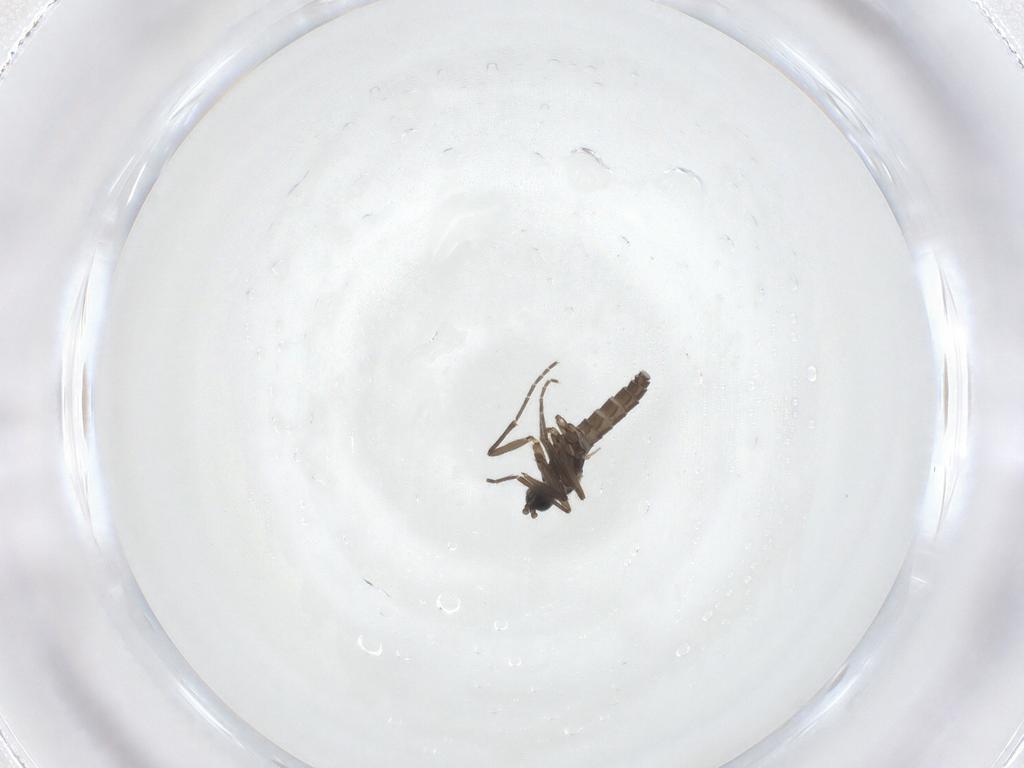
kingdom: Animalia
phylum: Arthropoda
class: Insecta
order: Diptera
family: Sciaridae
